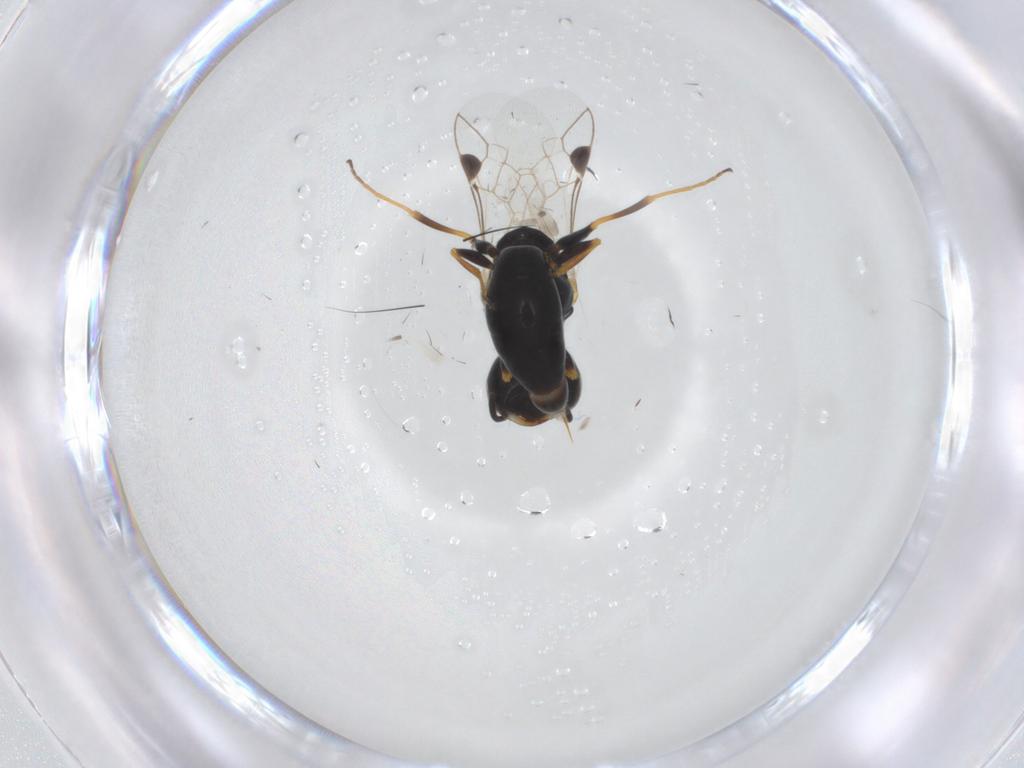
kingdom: Animalia
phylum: Arthropoda
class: Insecta
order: Hymenoptera
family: Crabronidae
